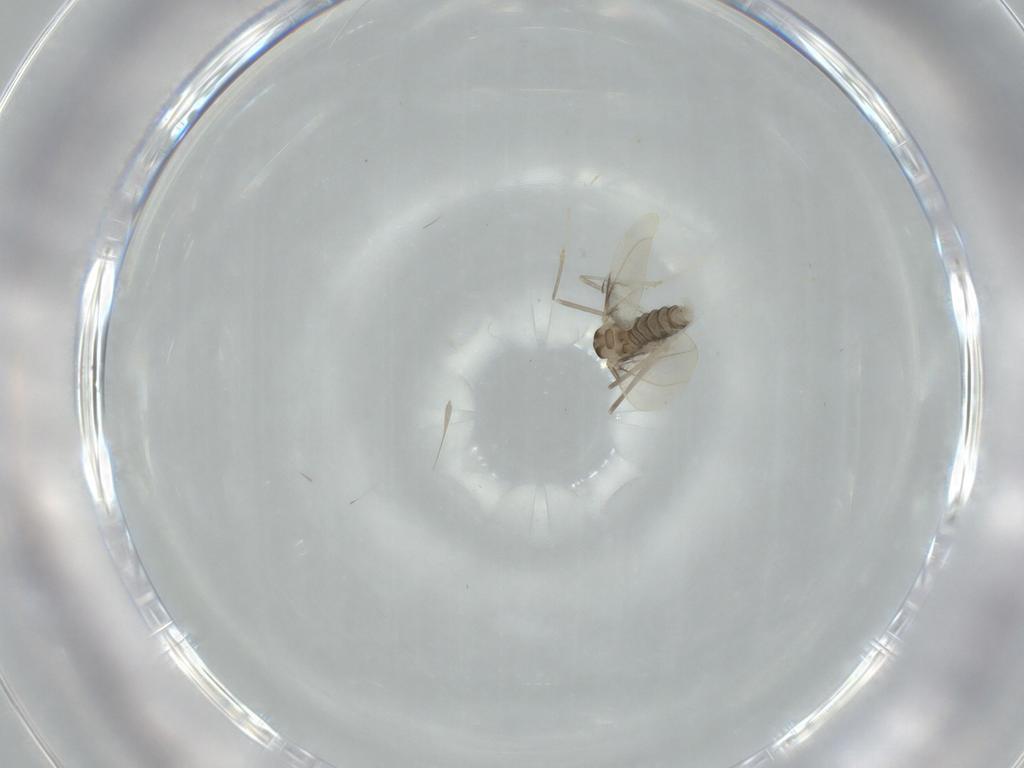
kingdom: Animalia
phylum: Arthropoda
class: Insecta
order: Diptera
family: Cecidomyiidae
